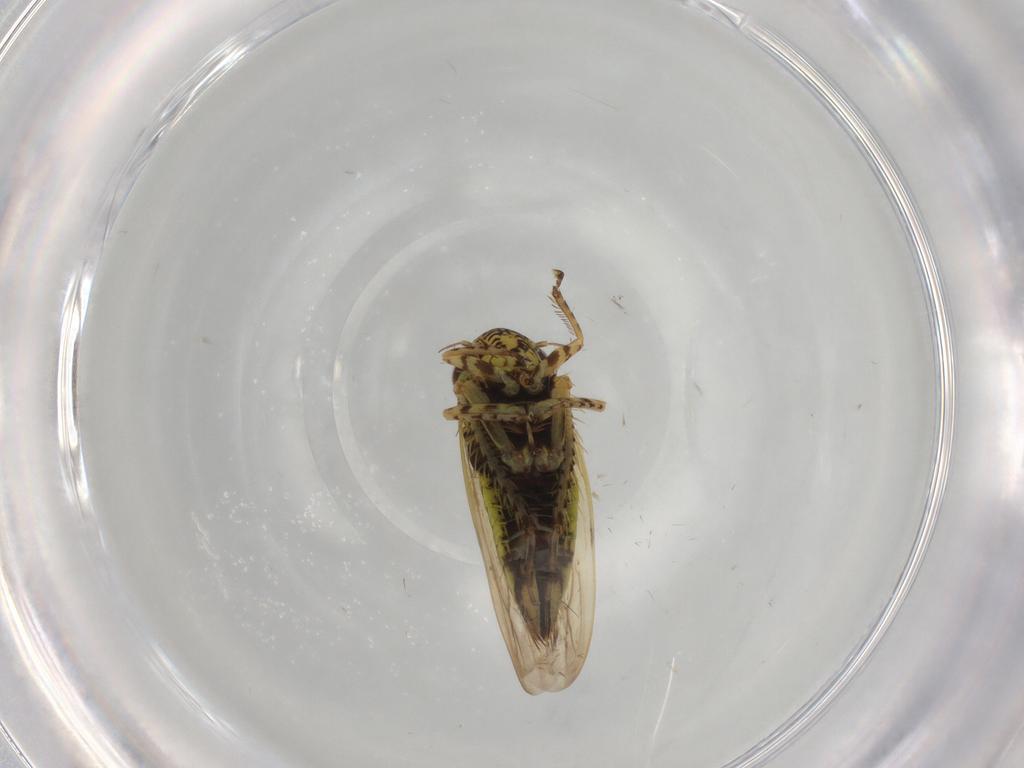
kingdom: Animalia
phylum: Arthropoda
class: Insecta
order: Hemiptera
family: Cicadellidae
